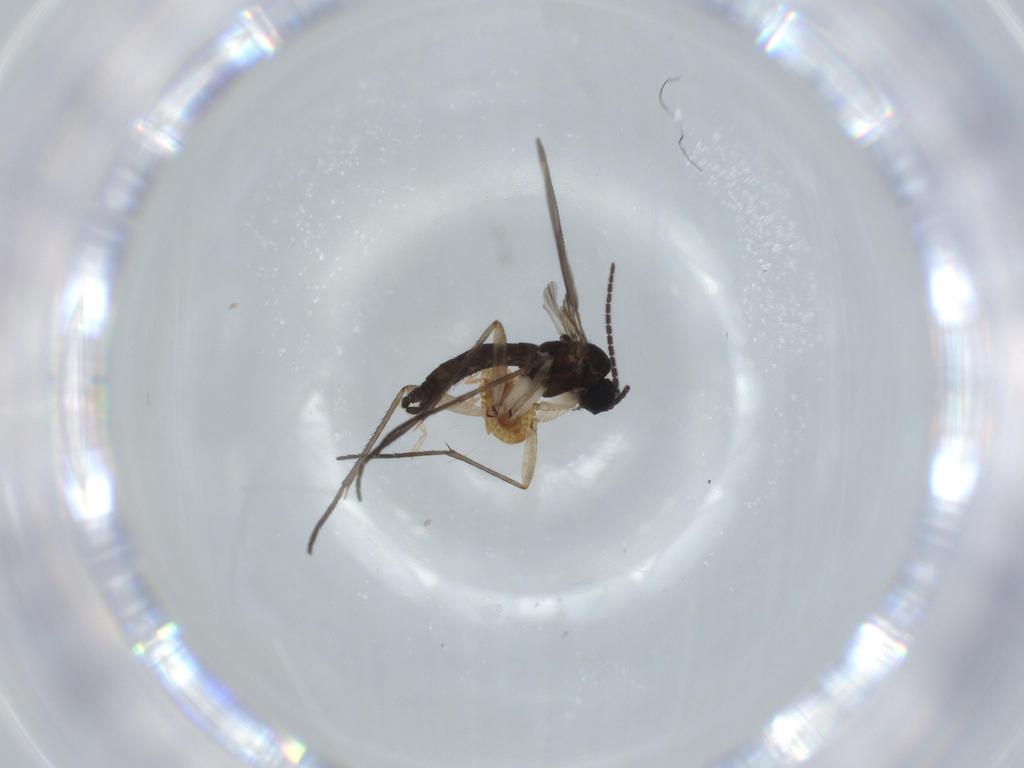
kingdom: Animalia
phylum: Arthropoda
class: Insecta
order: Diptera
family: Sciaridae
